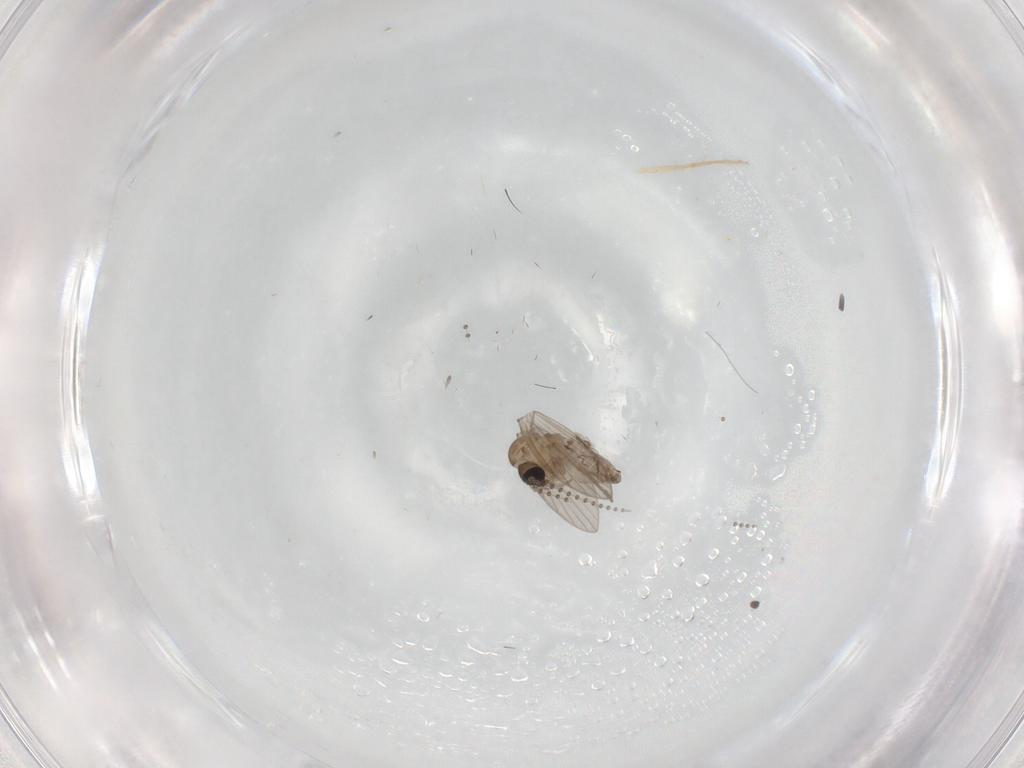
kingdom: Animalia
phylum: Arthropoda
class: Insecta
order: Diptera
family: Psychodidae
